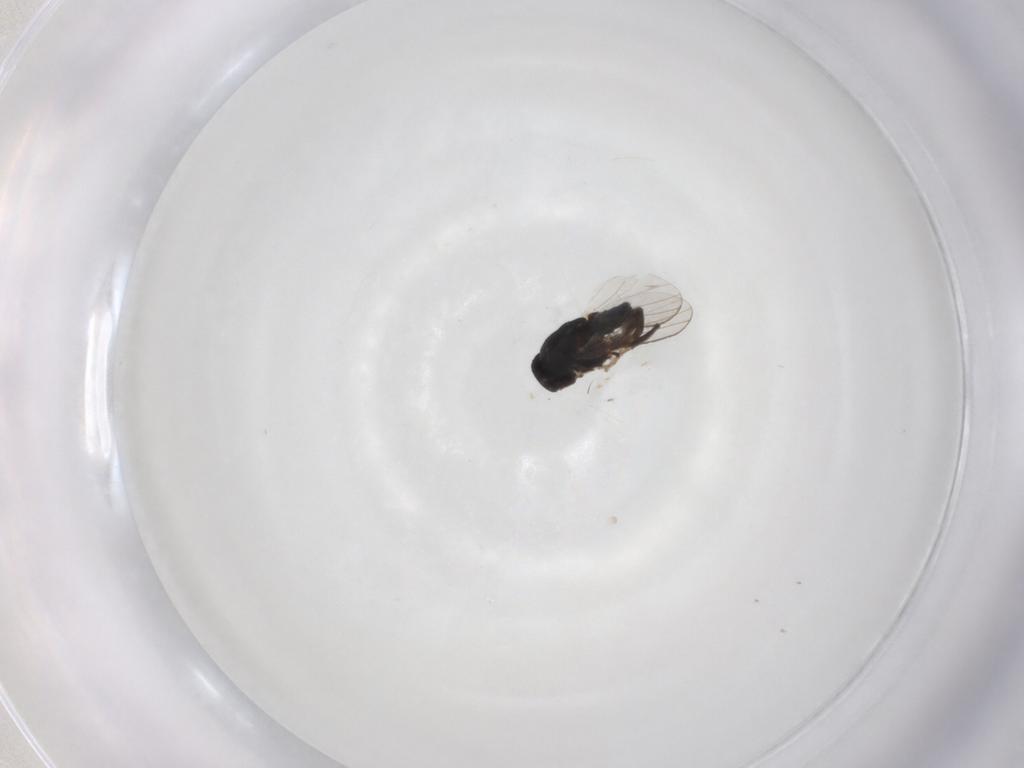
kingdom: Animalia
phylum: Arthropoda
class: Insecta
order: Diptera
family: Milichiidae
